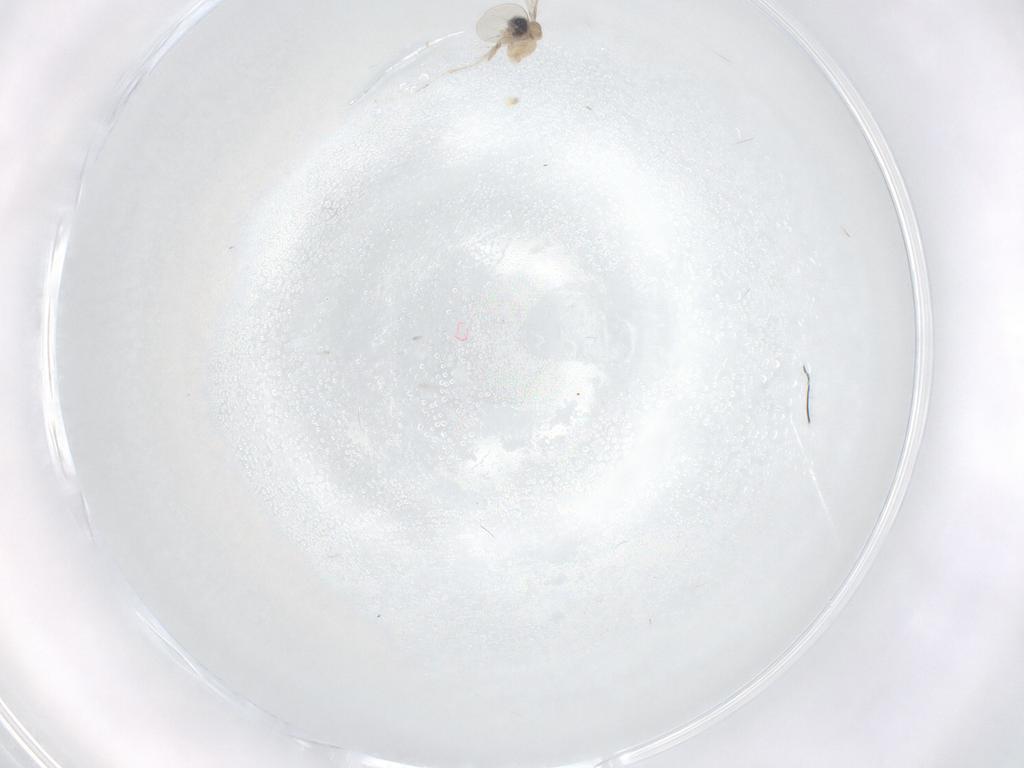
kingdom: Animalia
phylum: Arthropoda
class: Insecta
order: Diptera
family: Cecidomyiidae
